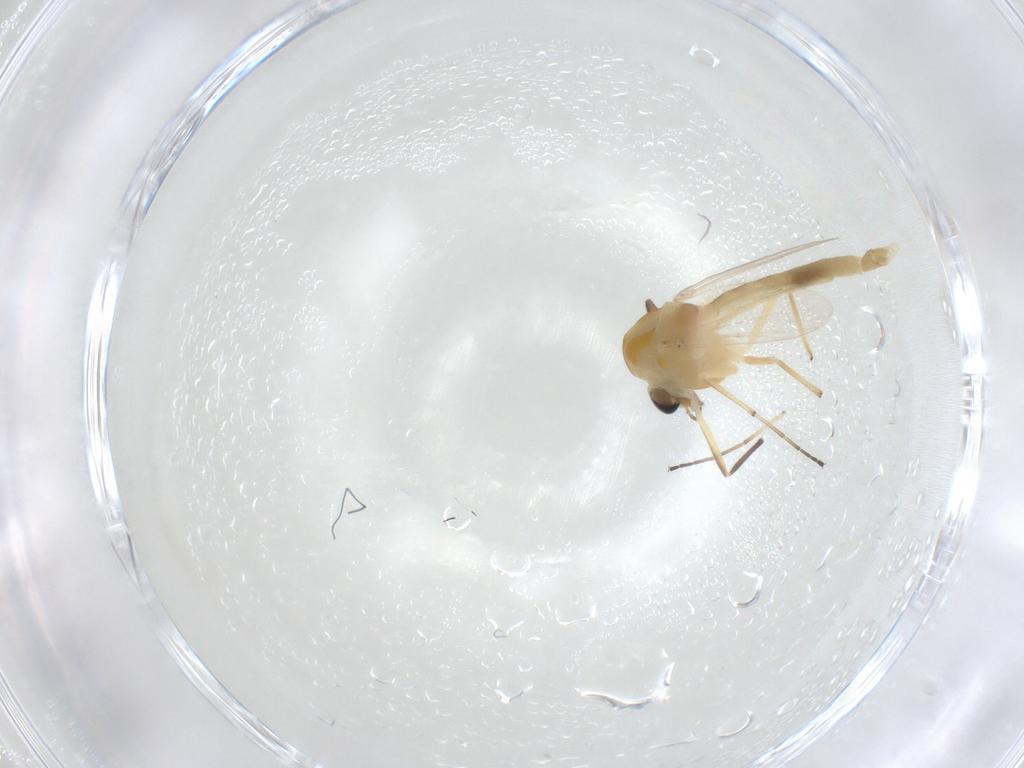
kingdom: Animalia
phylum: Arthropoda
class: Insecta
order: Diptera
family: Chironomidae
